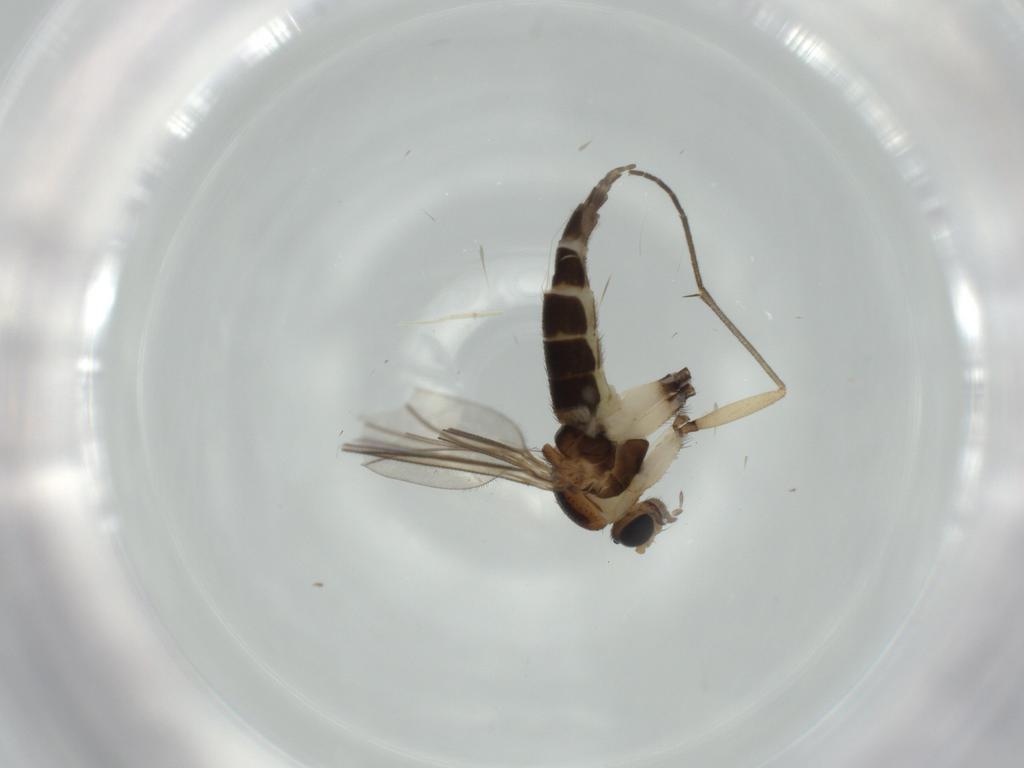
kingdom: Animalia
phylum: Arthropoda
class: Insecta
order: Diptera
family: Sciaridae
